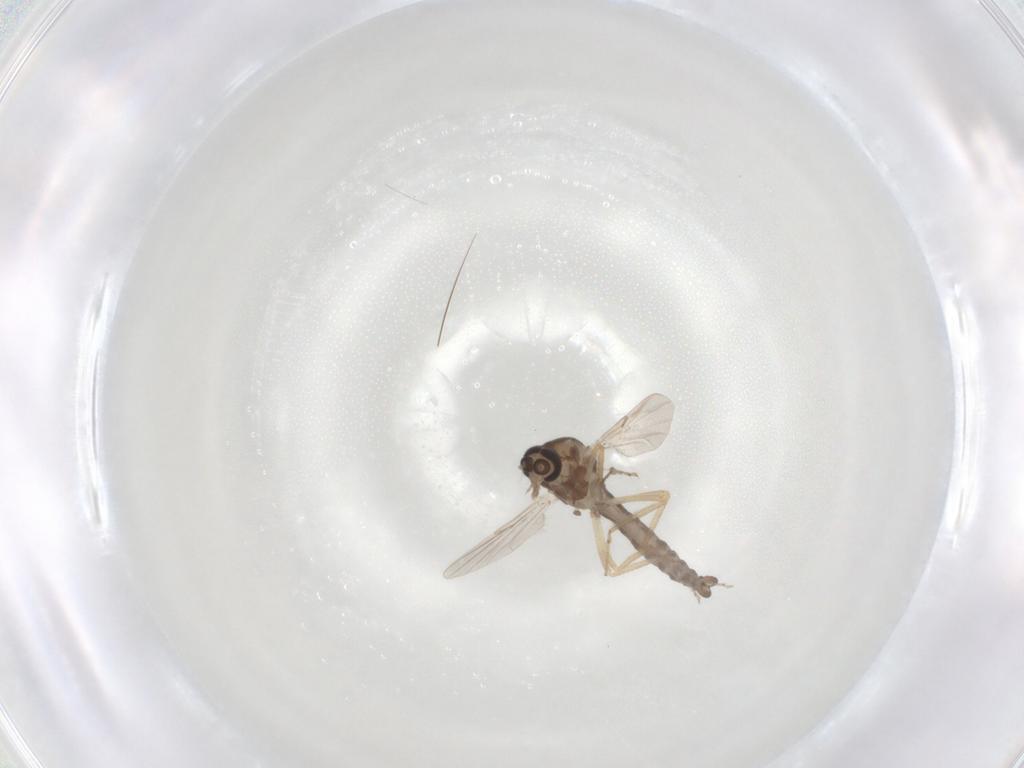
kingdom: Animalia
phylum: Arthropoda
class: Insecta
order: Diptera
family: Ceratopogonidae
